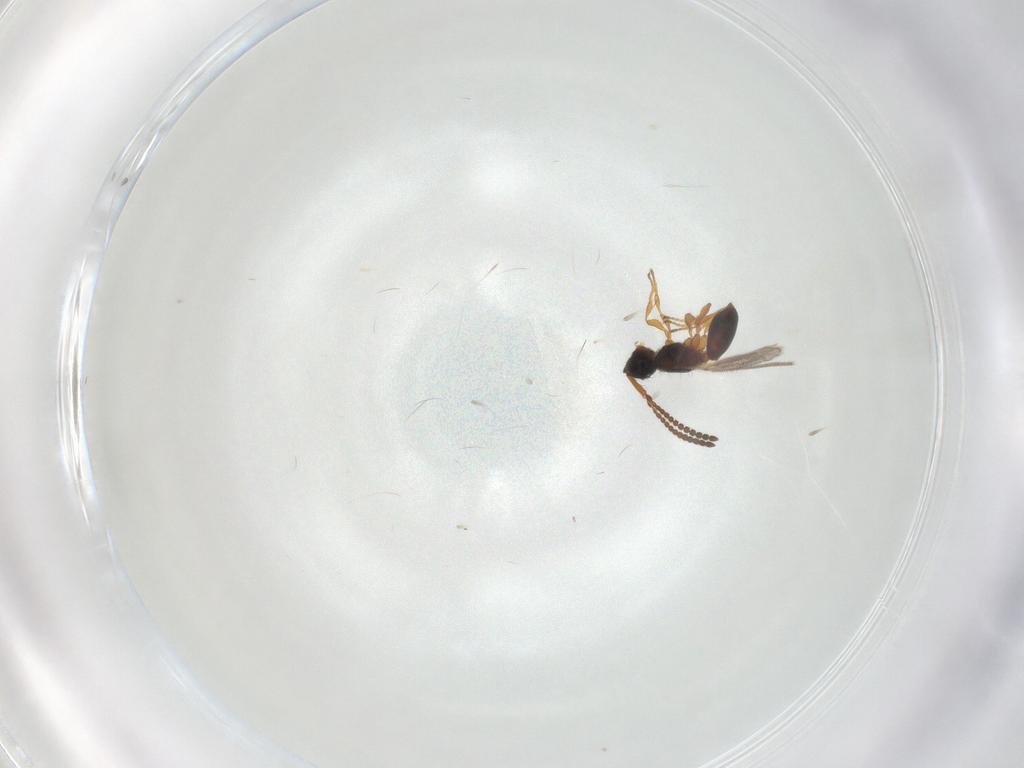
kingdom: Animalia
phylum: Arthropoda
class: Insecta
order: Hymenoptera
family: Diapriidae
